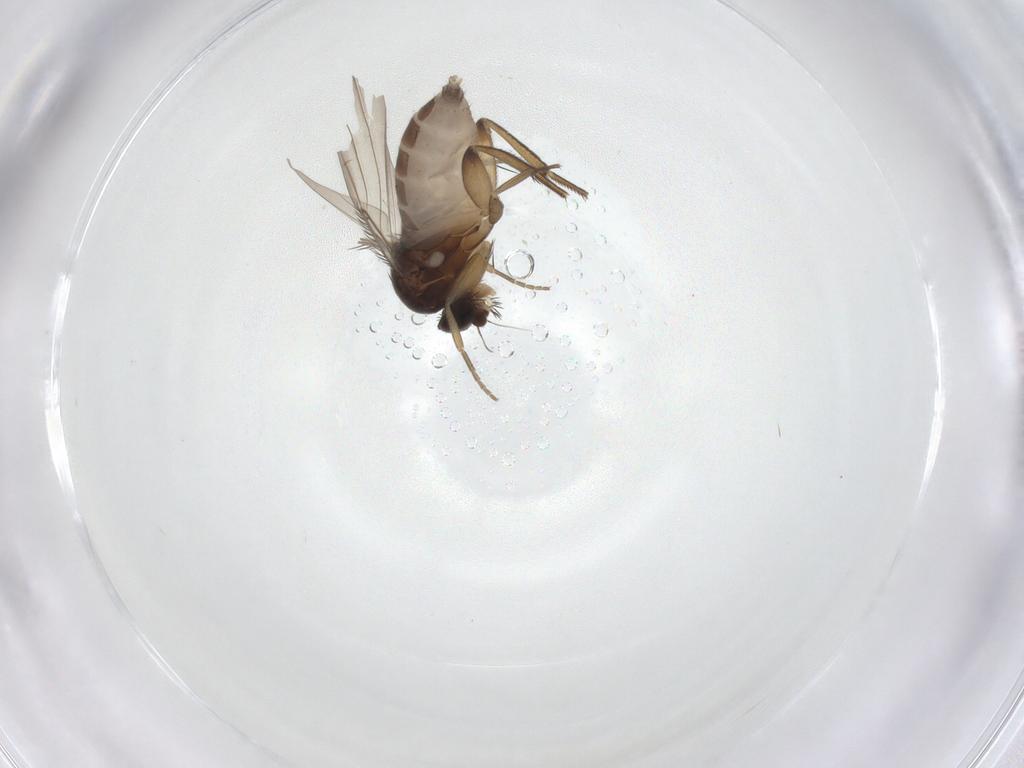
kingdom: Animalia
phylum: Arthropoda
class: Insecta
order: Diptera
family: Phoridae
